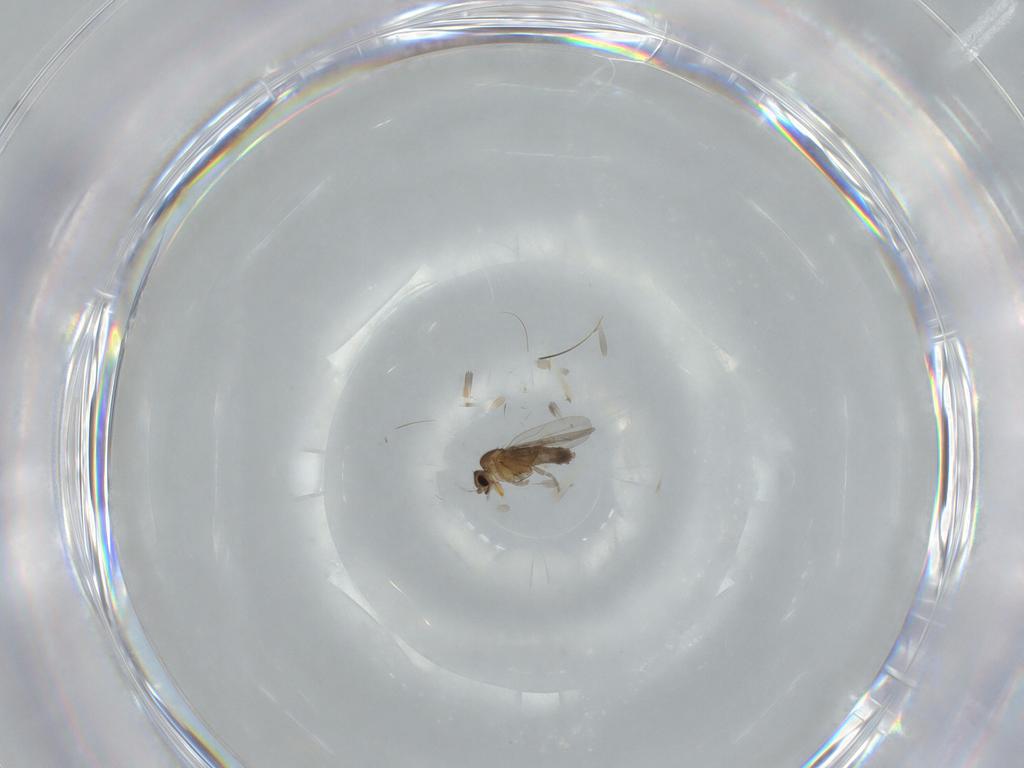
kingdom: Animalia
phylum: Arthropoda
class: Insecta
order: Diptera
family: Phoridae
